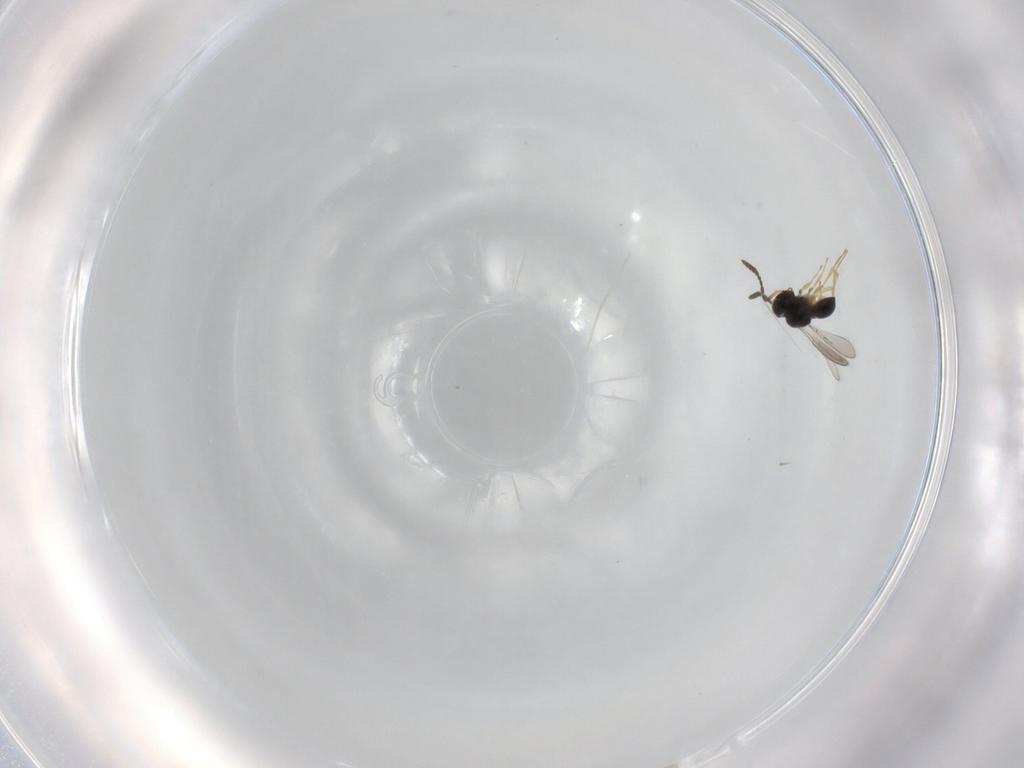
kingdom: Animalia
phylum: Arthropoda
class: Insecta
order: Hymenoptera
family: Scelionidae
